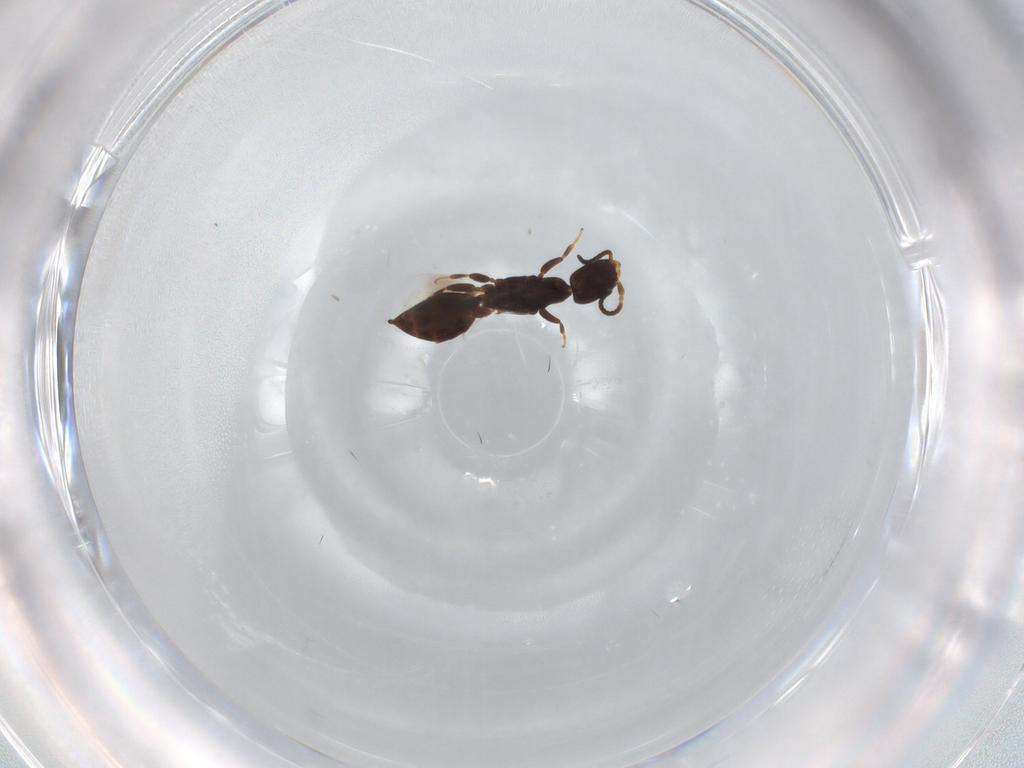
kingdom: Animalia
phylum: Arthropoda
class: Insecta
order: Hymenoptera
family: Bethylidae
